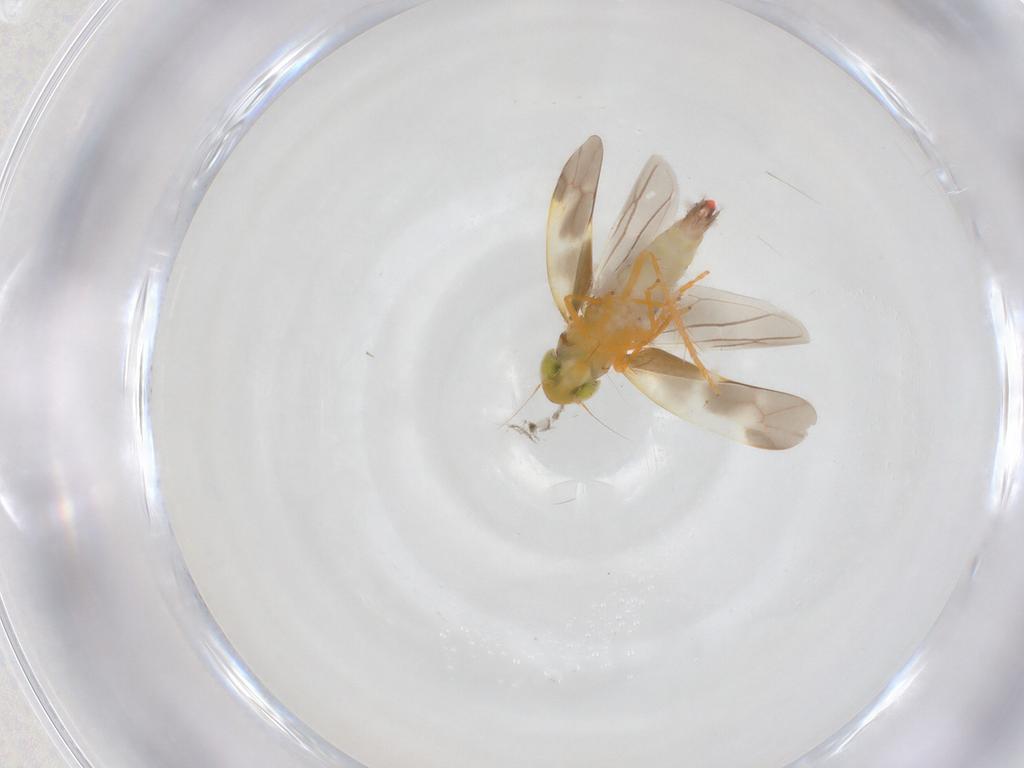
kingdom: Animalia
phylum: Arthropoda
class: Insecta
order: Hemiptera
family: Cicadellidae
